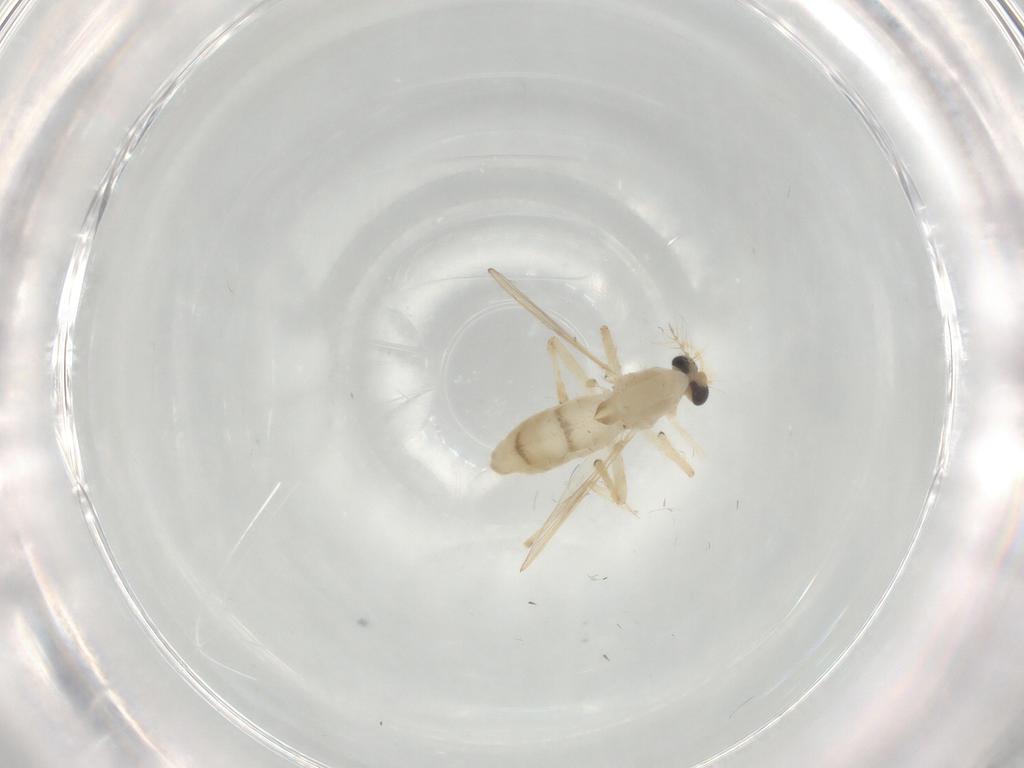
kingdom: Animalia
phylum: Arthropoda
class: Insecta
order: Diptera
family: Chironomidae
